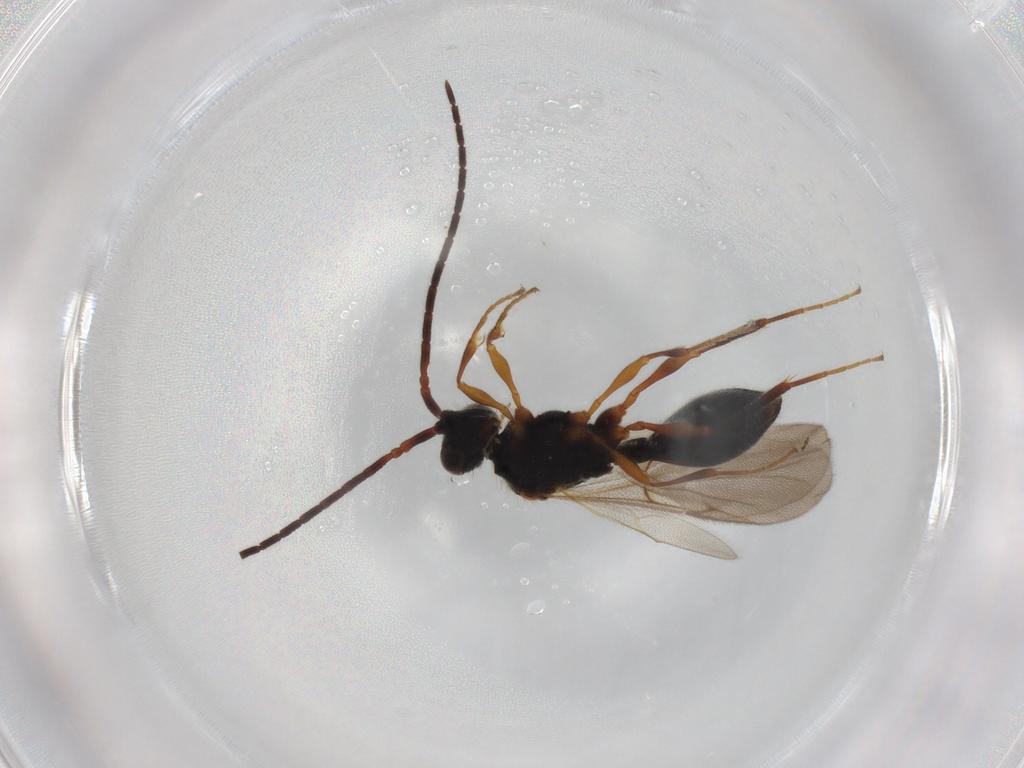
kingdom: Animalia
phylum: Arthropoda
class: Insecta
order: Hymenoptera
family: Diapriidae
